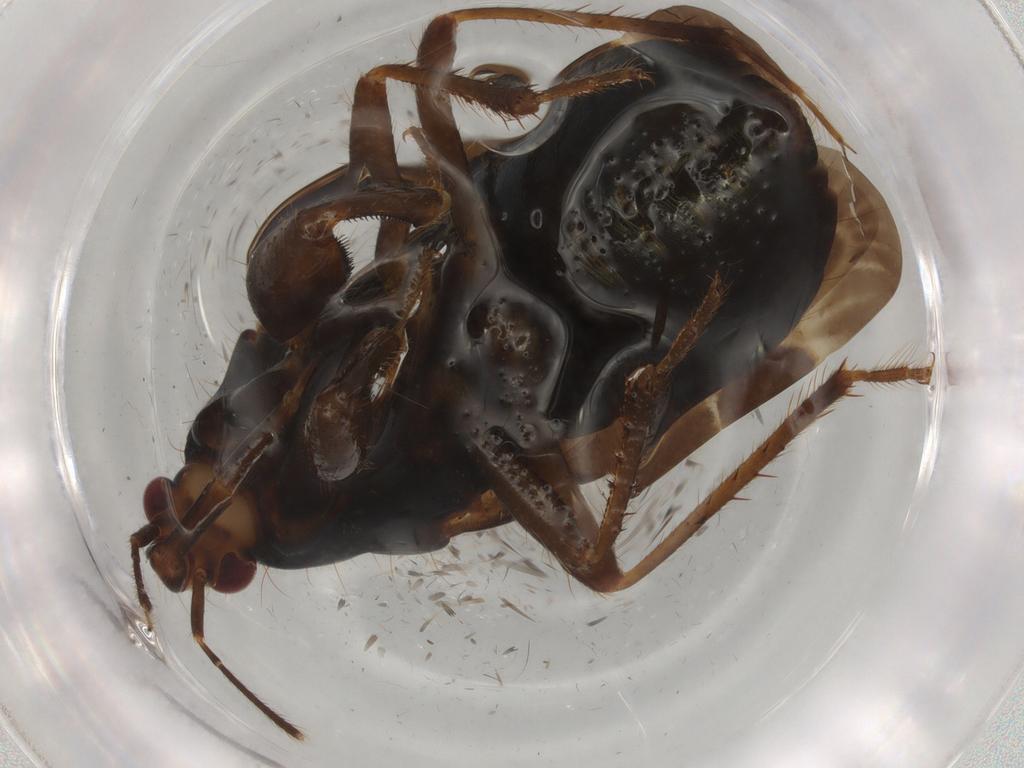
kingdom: Animalia
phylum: Arthropoda
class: Insecta
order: Hemiptera
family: Nabidae
